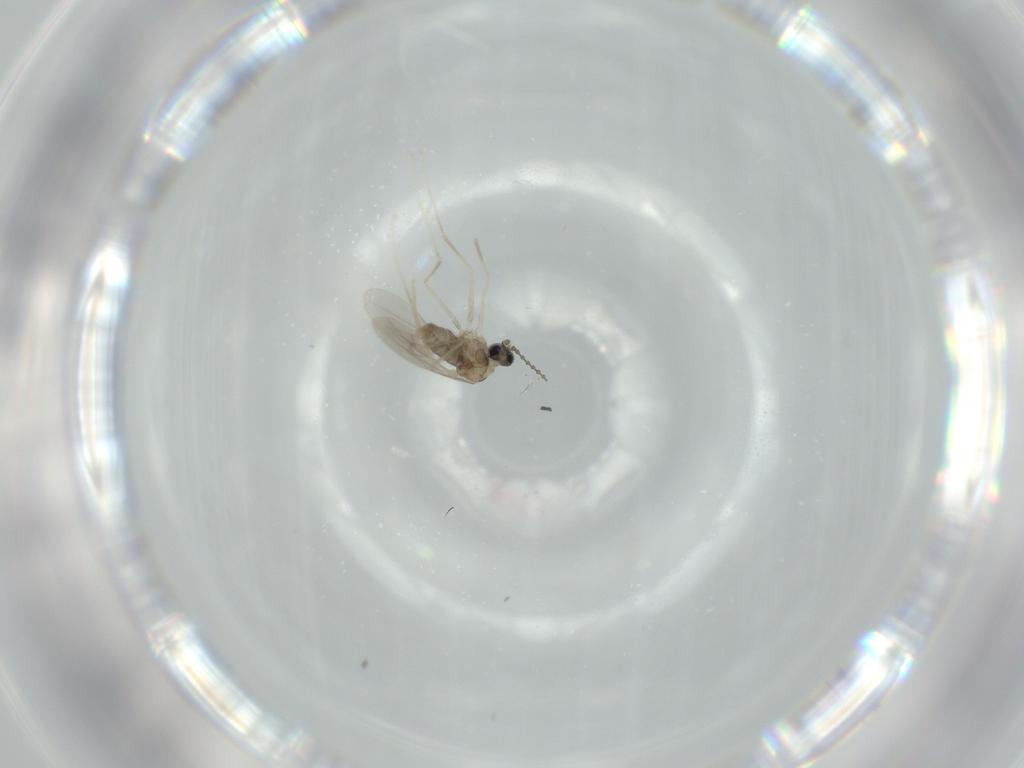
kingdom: Animalia
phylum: Arthropoda
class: Insecta
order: Diptera
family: Cecidomyiidae
